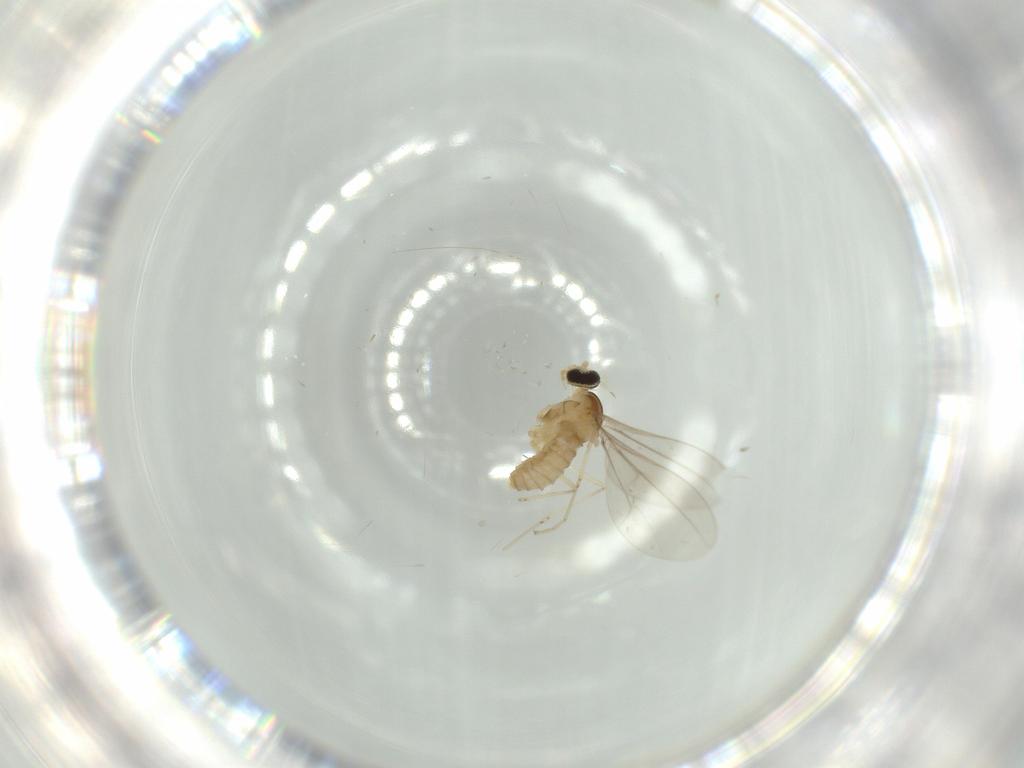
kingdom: Animalia
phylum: Arthropoda
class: Insecta
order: Diptera
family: Cecidomyiidae
